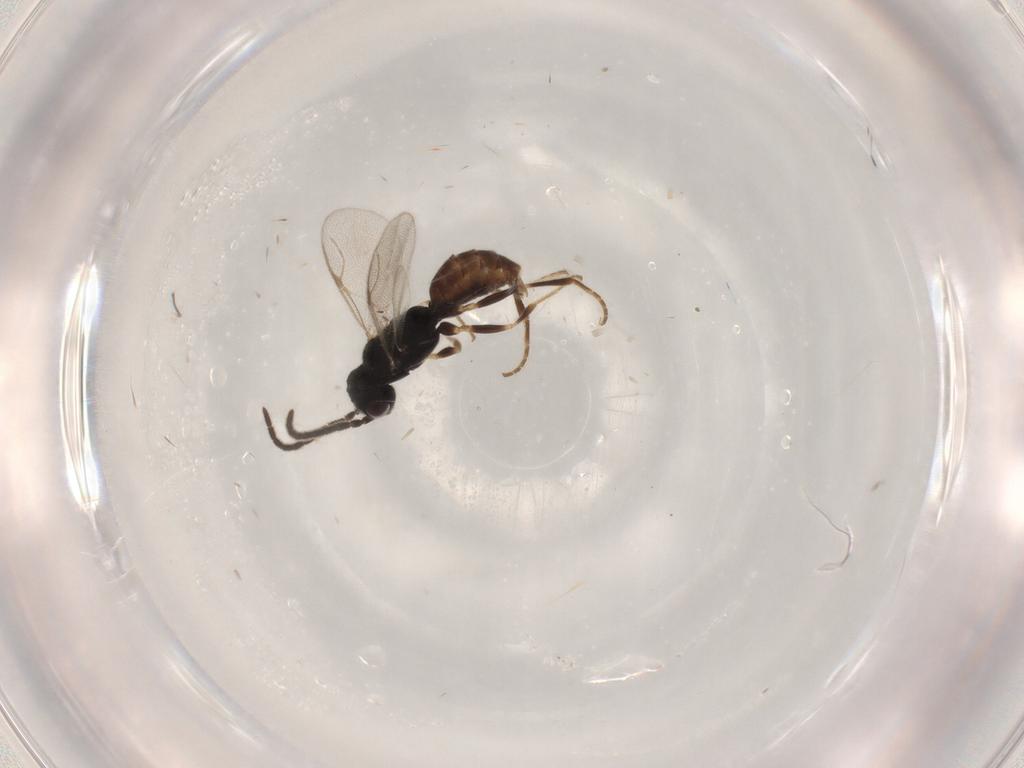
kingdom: Animalia
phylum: Arthropoda
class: Insecta
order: Hymenoptera
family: Dryinidae
